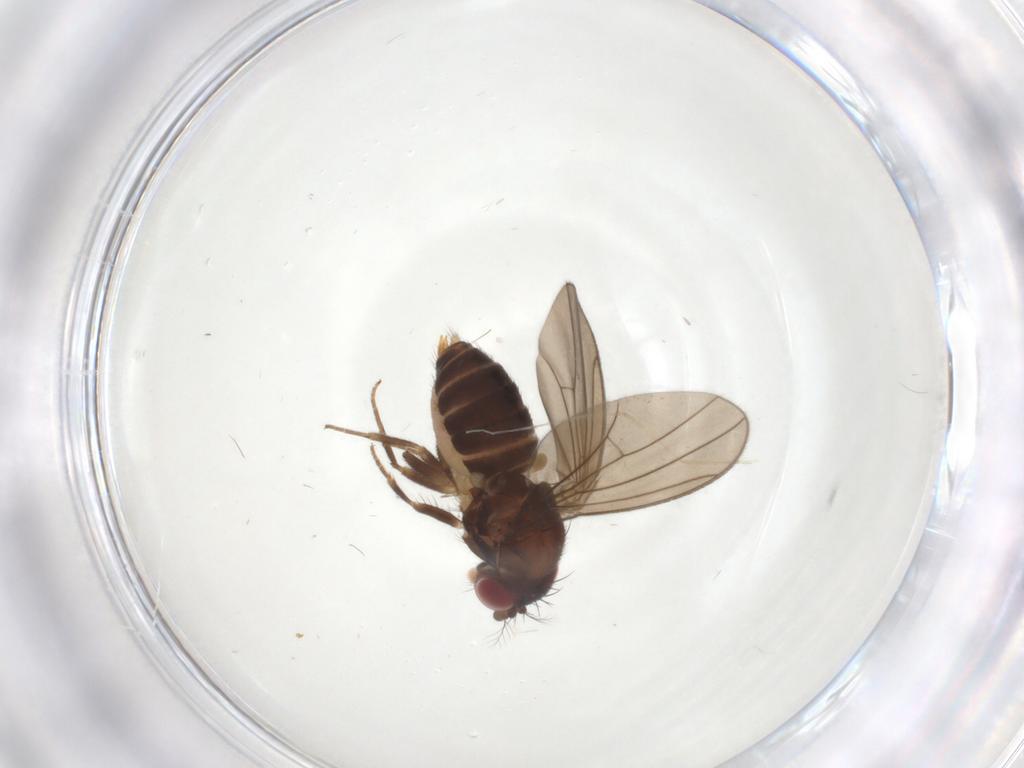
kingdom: Animalia
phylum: Arthropoda
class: Insecta
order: Diptera
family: Drosophilidae
